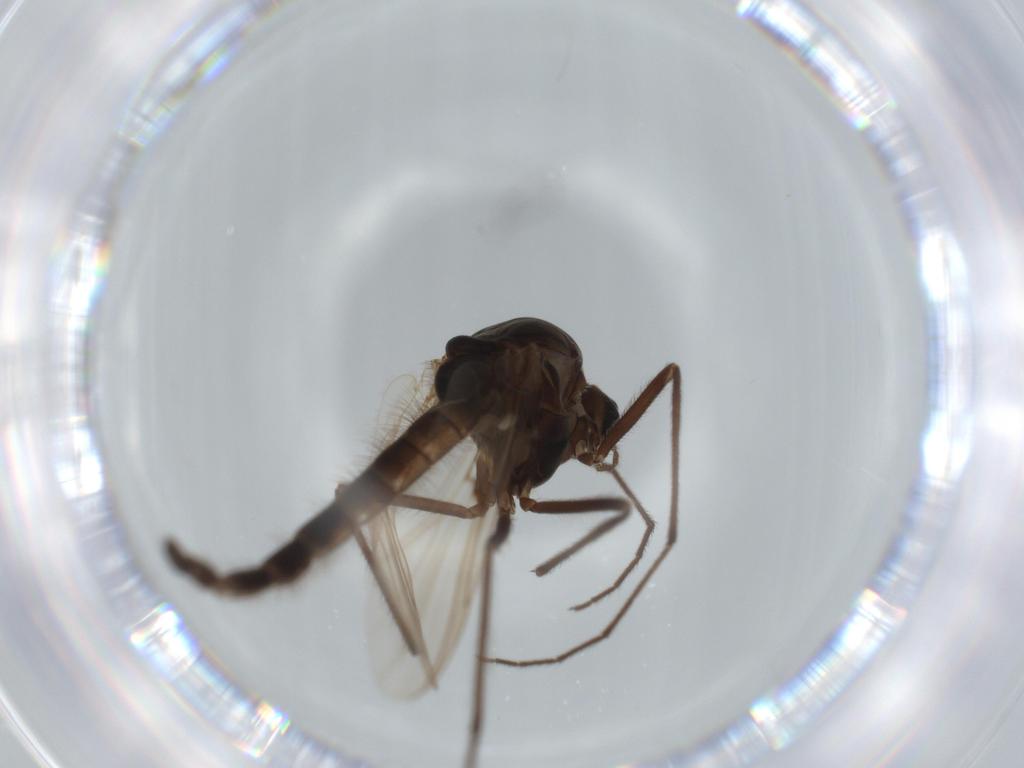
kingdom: Animalia
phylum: Arthropoda
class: Insecta
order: Diptera
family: Chironomidae
